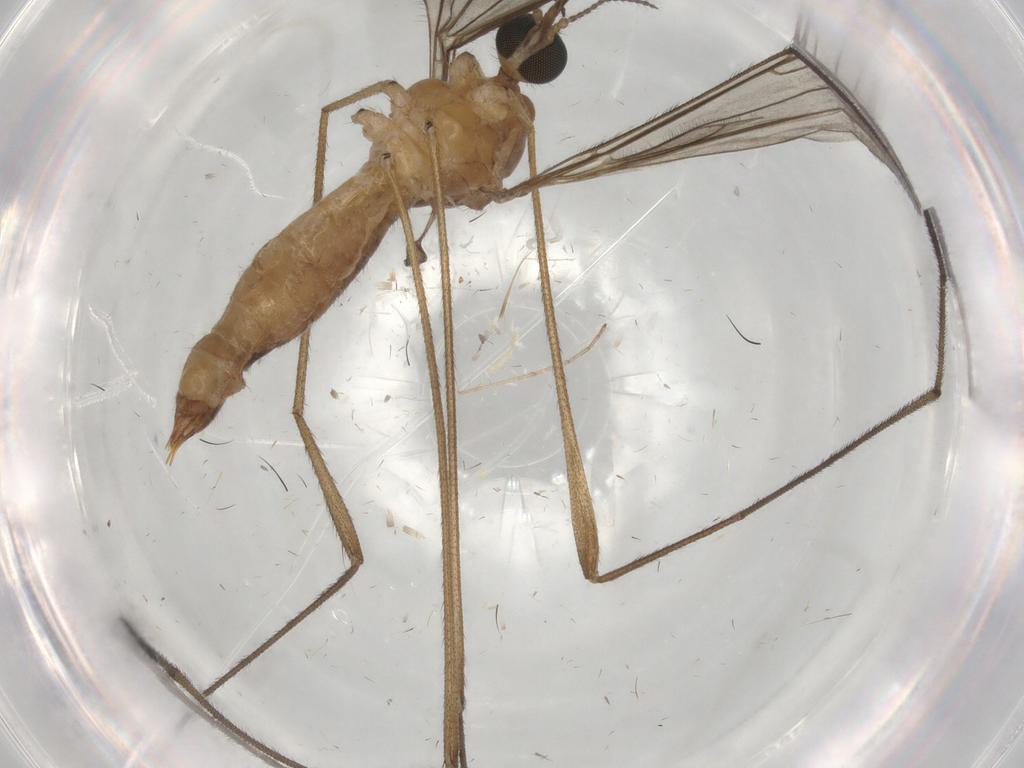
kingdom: Animalia
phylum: Arthropoda
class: Insecta
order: Diptera
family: Ceratopogonidae
